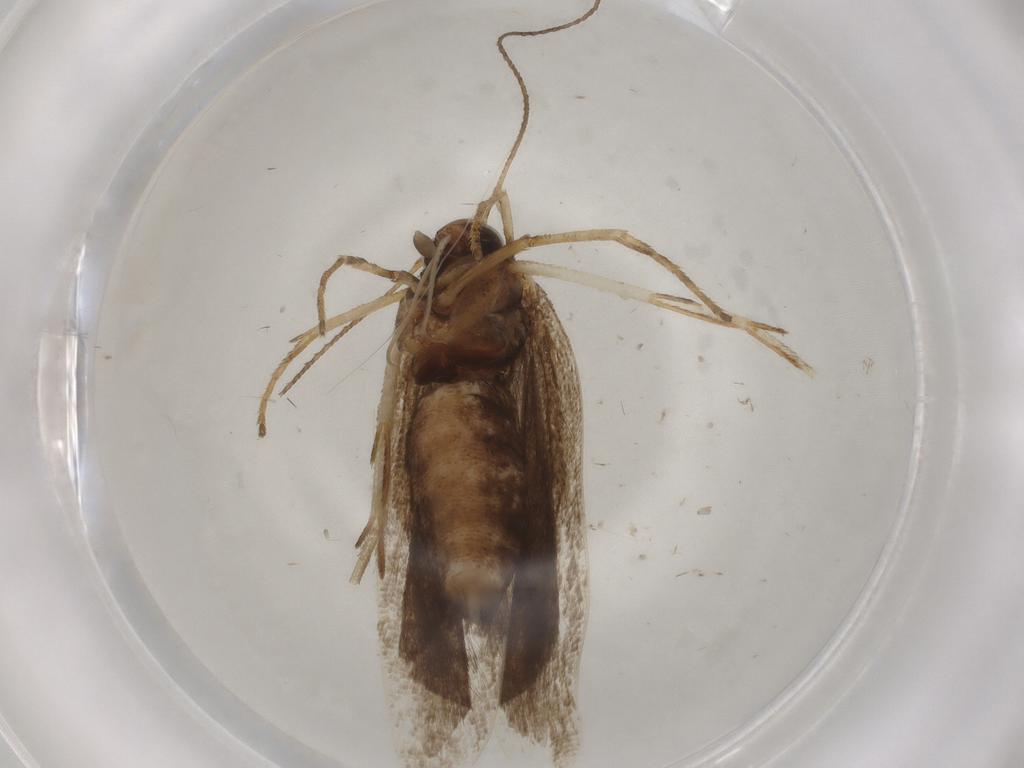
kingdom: Animalia
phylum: Arthropoda
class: Insecta
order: Lepidoptera
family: Gelechiidae
